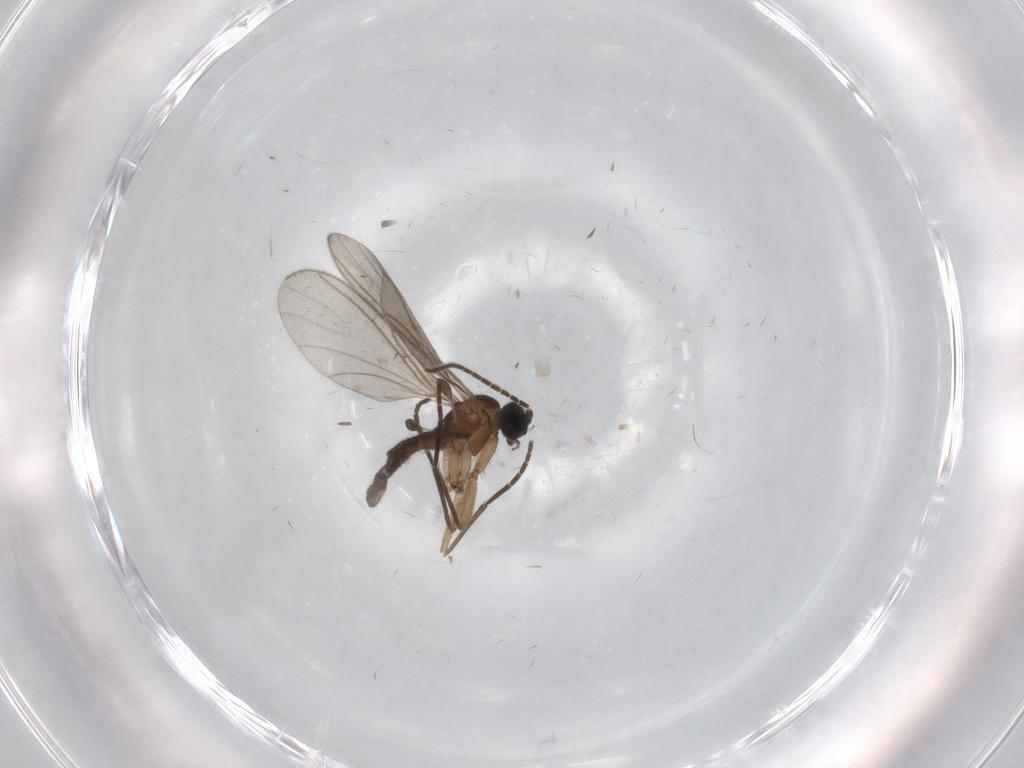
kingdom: Animalia
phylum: Arthropoda
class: Insecta
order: Diptera
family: Sciaridae
